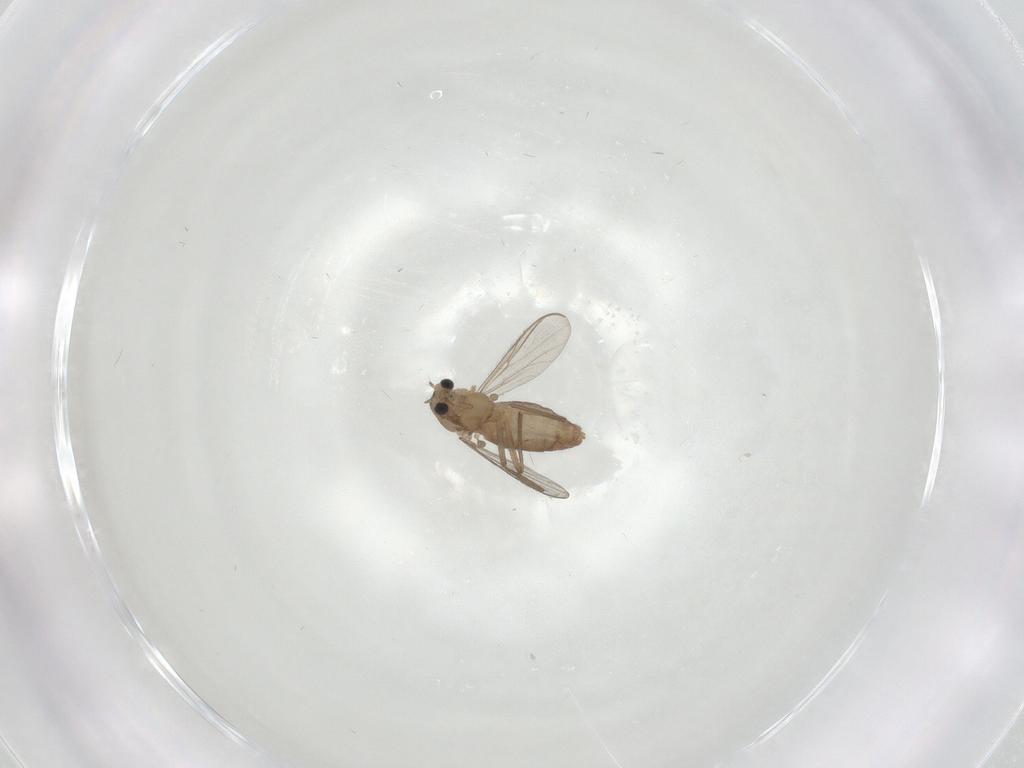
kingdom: Animalia
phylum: Arthropoda
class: Insecta
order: Diptera
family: Chironomidae
